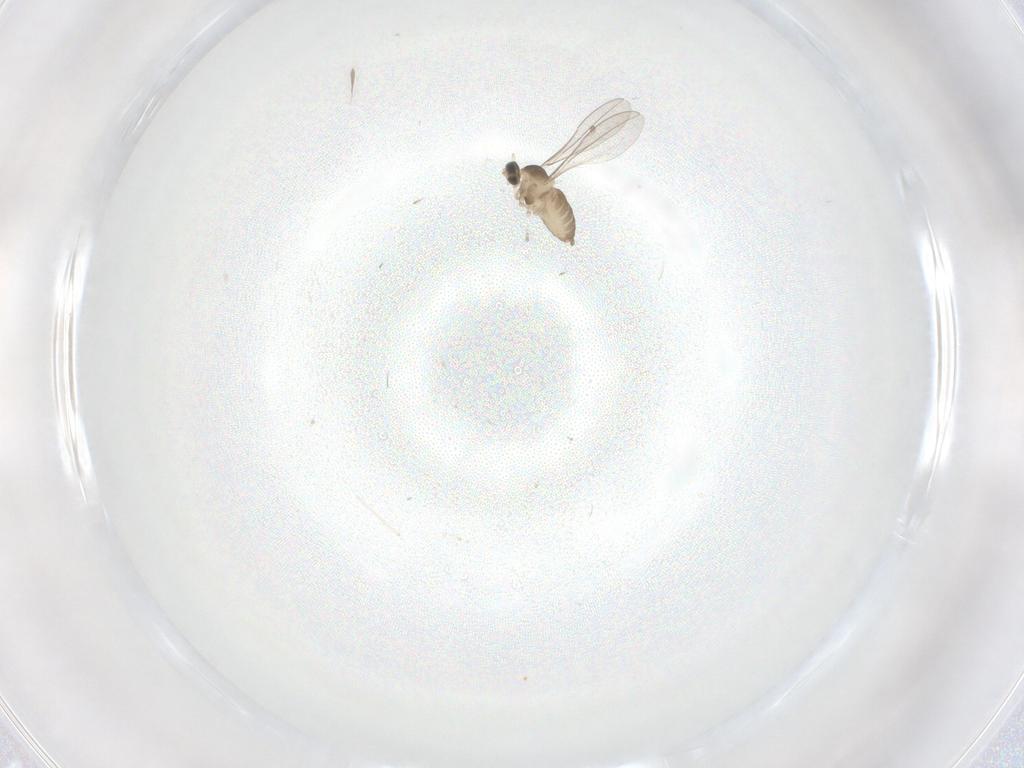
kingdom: Animalia
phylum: Arthropoda
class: Insecta
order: Diptera
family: Cecidomyiidae
